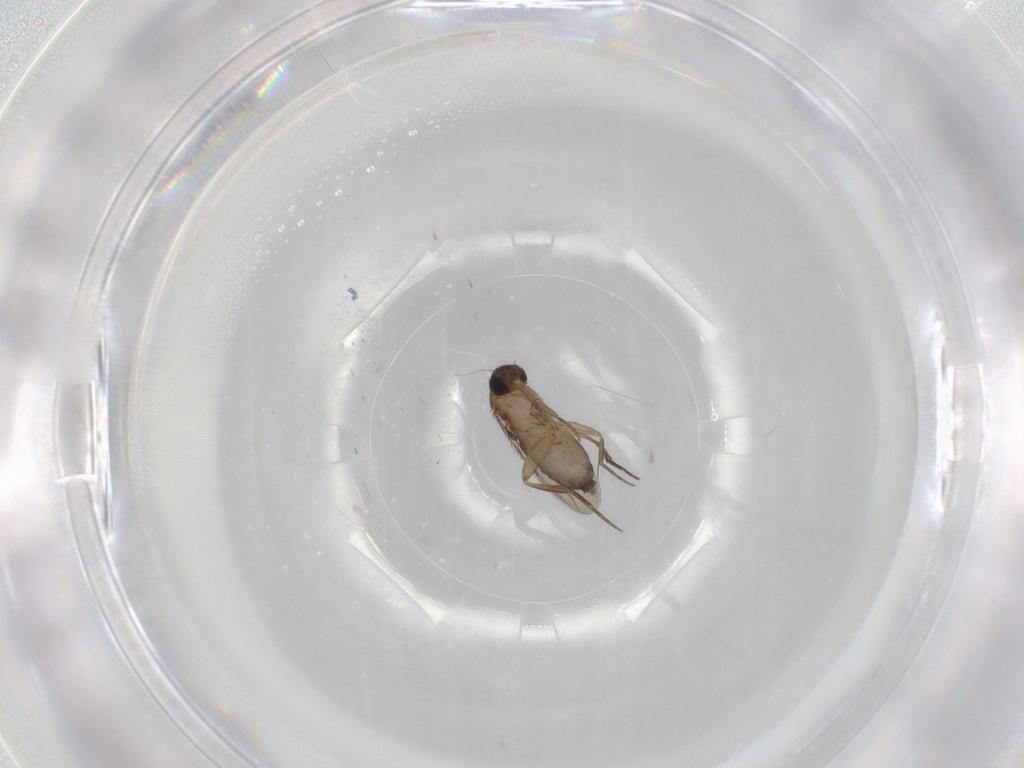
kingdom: Animalia
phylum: Arthropoda
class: Insecta
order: Diptera
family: Phoridae
